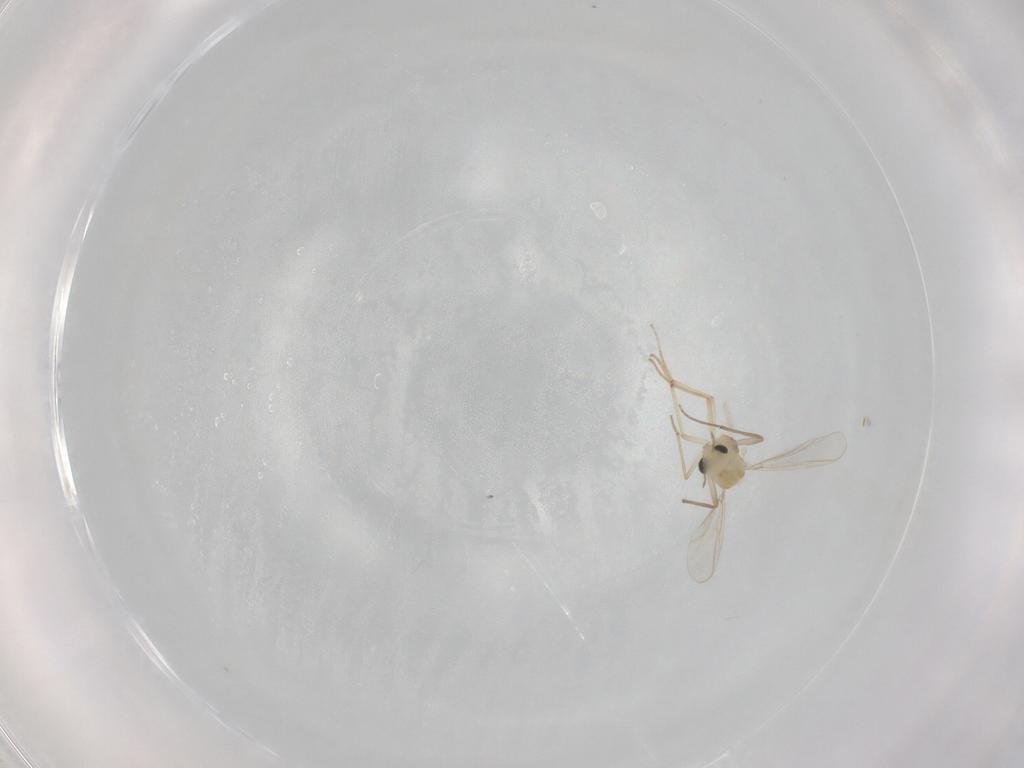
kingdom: Animalia
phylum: Arthropoda
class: Insecta
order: Diptera
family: Chironomidae
